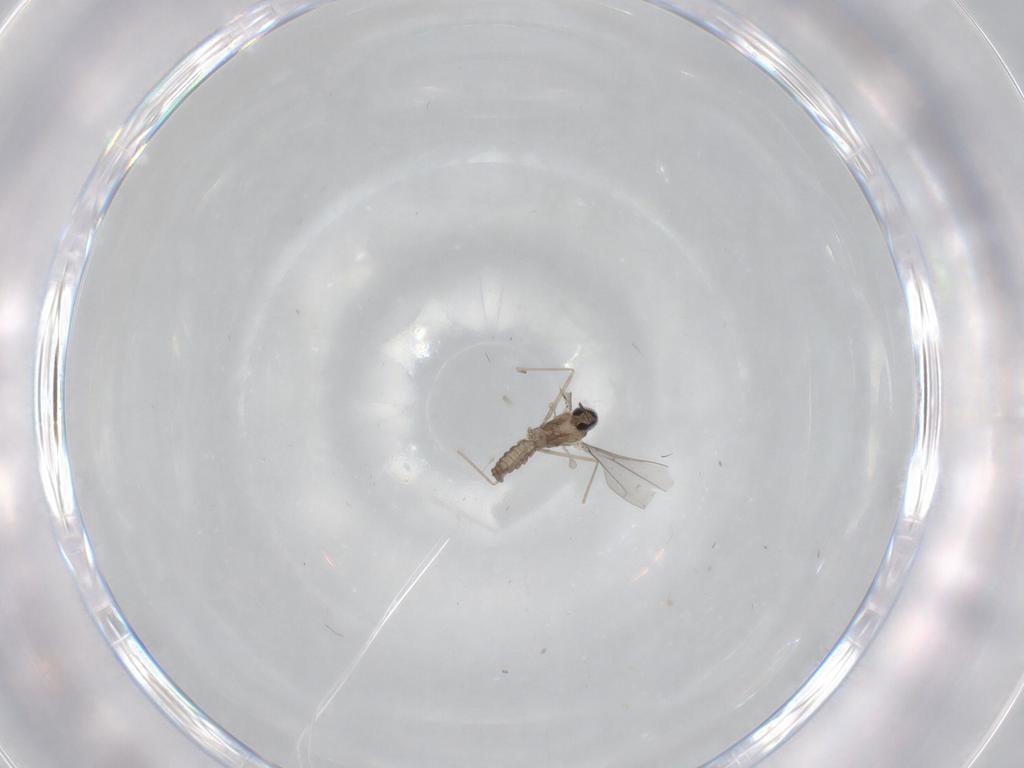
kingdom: Animalia
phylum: Arthropoda
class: Insecta
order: Diptera
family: Cecidomyiidae
